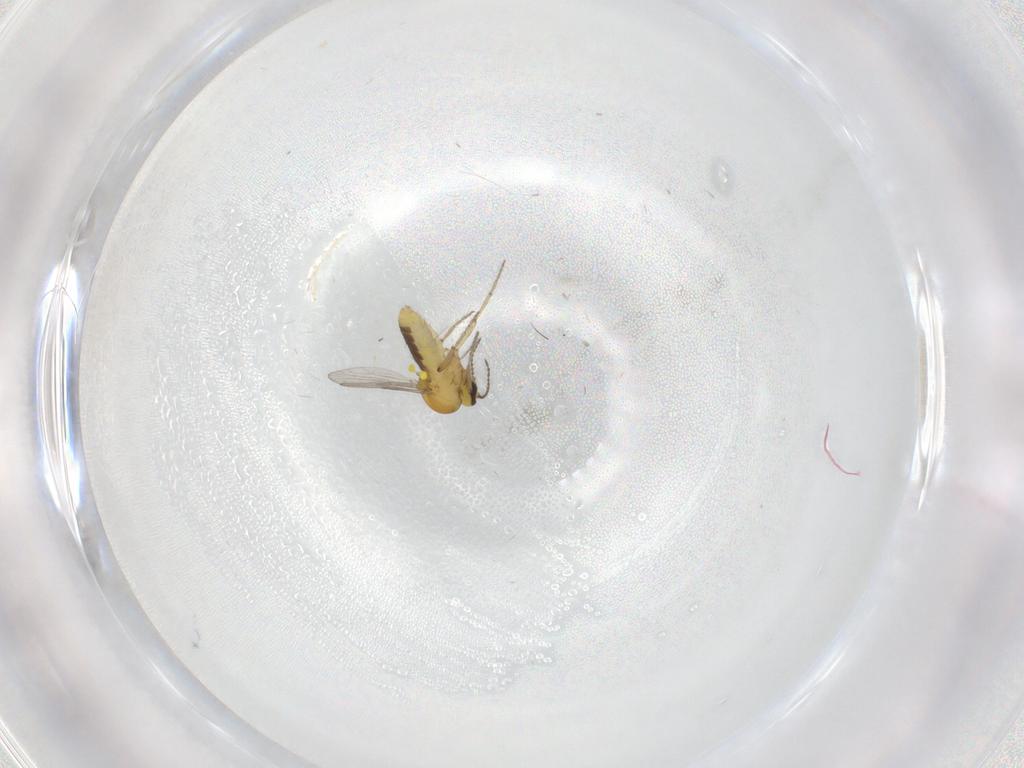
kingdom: Animalia
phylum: Arthropoda
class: Insecta
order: Diptera
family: Ceratopogonidae
